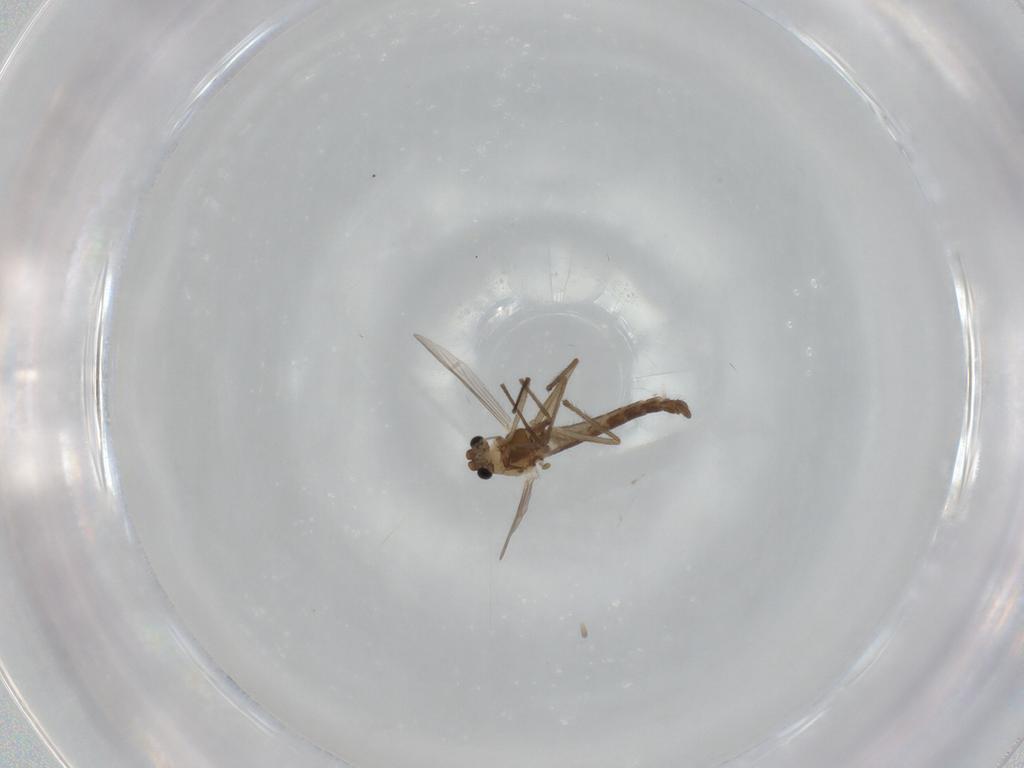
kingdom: Animalia
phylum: Arthropoda
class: Insecta
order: Diptera
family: Chironomidae
